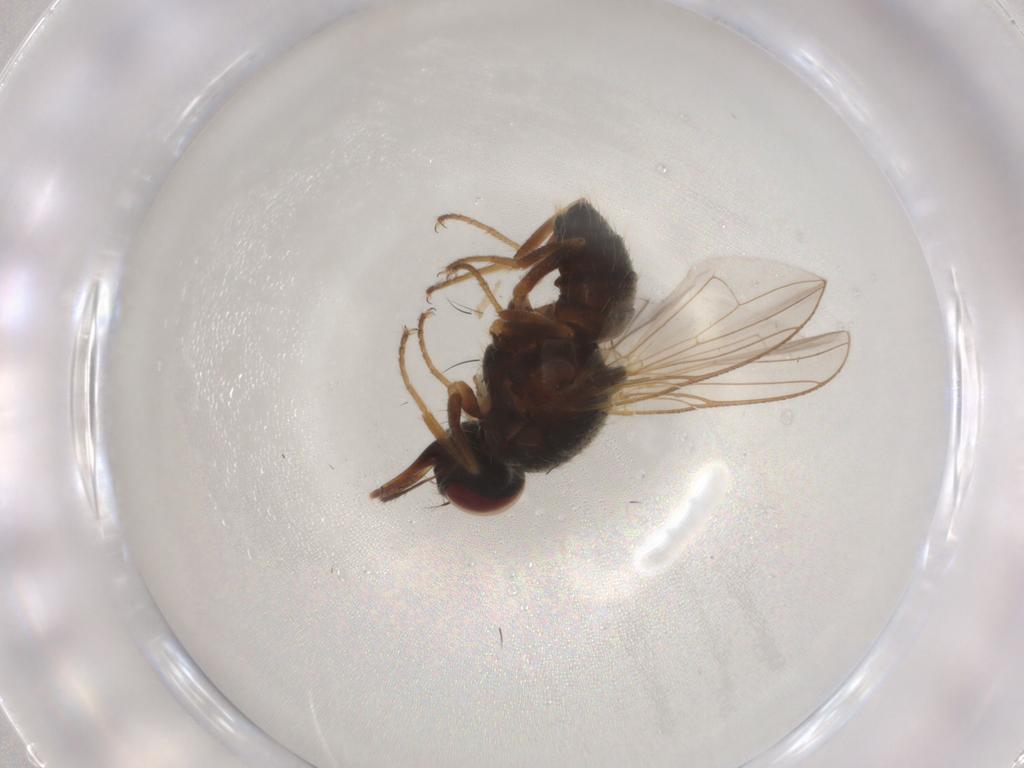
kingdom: Animalia
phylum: Arthropoda
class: Insecta
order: Diptera
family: Muscidae
